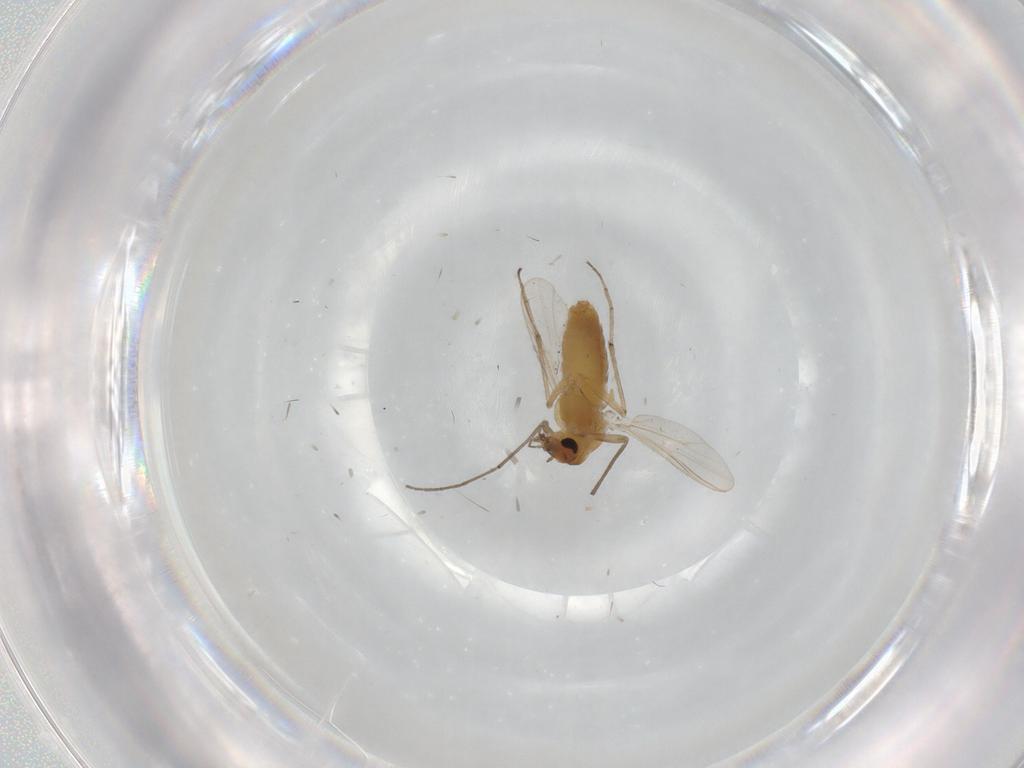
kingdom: Animalia
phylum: Arthropoda
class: Insecta
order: Diptera
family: Chironomidae
